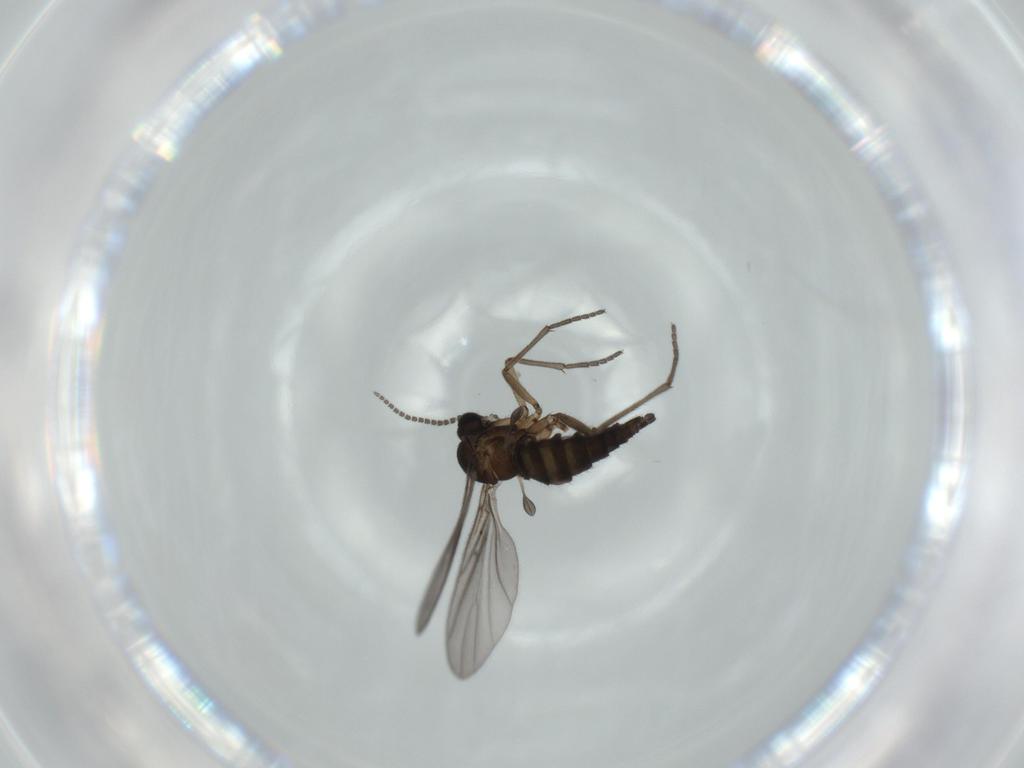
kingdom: Animalia
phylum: Arthropoda
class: Insecta
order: Diptera
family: Sciaridae
